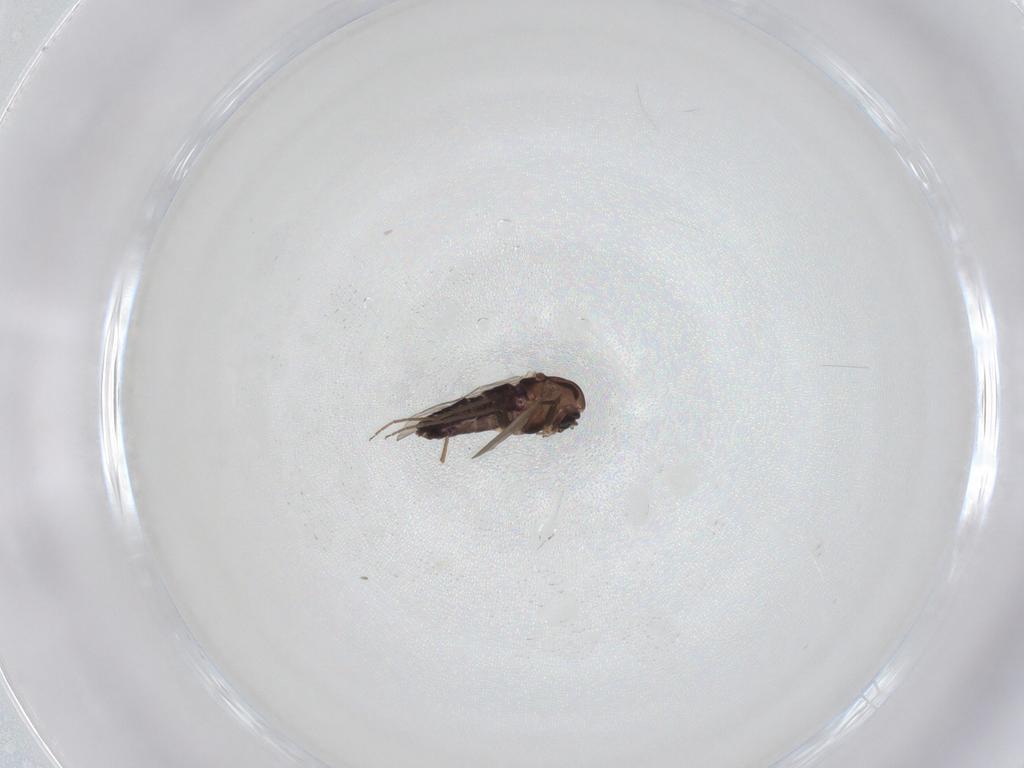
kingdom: Animalia
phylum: Arthropoda
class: Insecta
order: Diptera
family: Chironomidae
